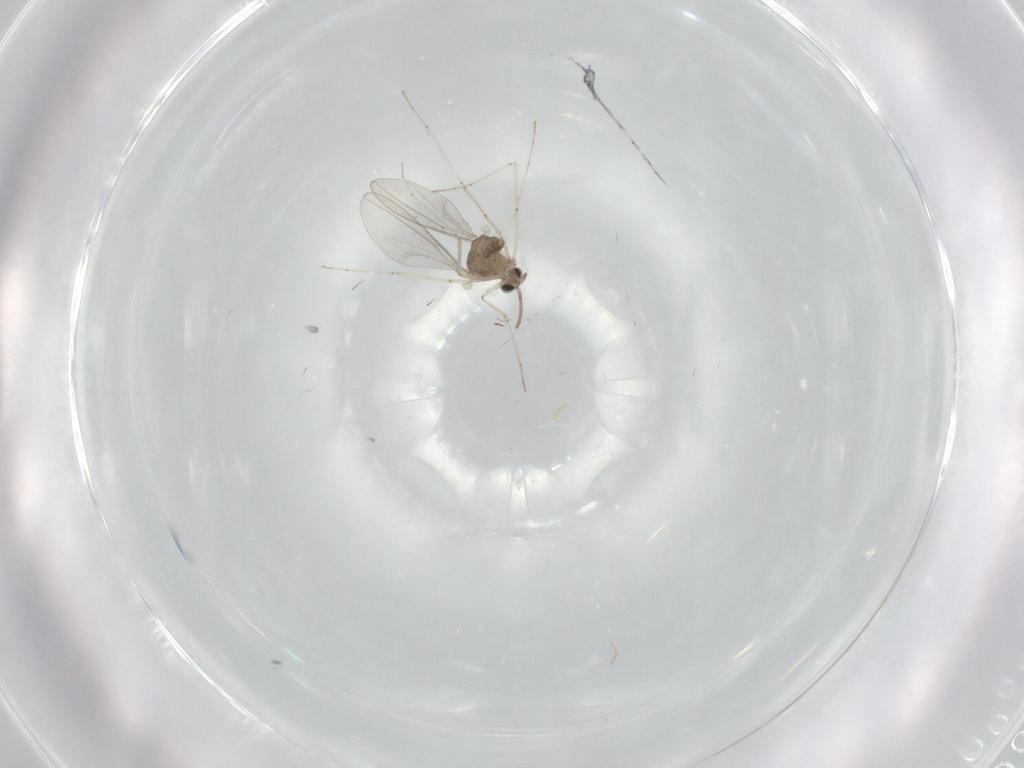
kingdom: Animalia
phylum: Arthropoda
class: Insecta
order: Diptera
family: Cecidomyiidae
